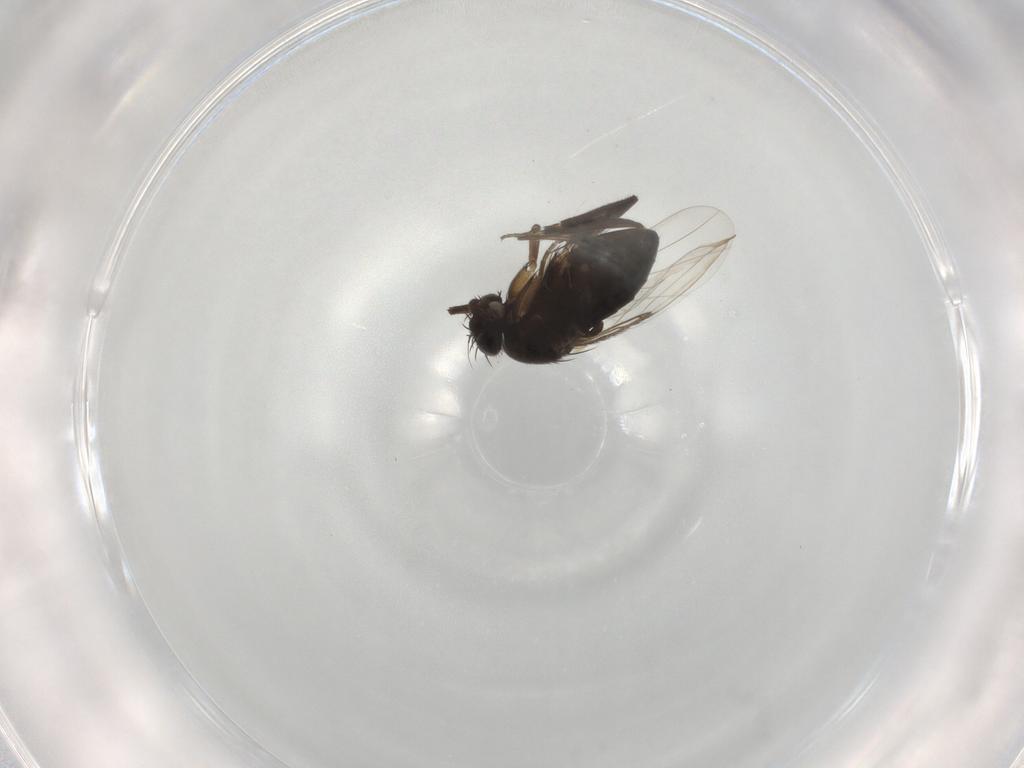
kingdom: Animalia
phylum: Arthropoda
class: Insecta
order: Diptera
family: Phoridae
